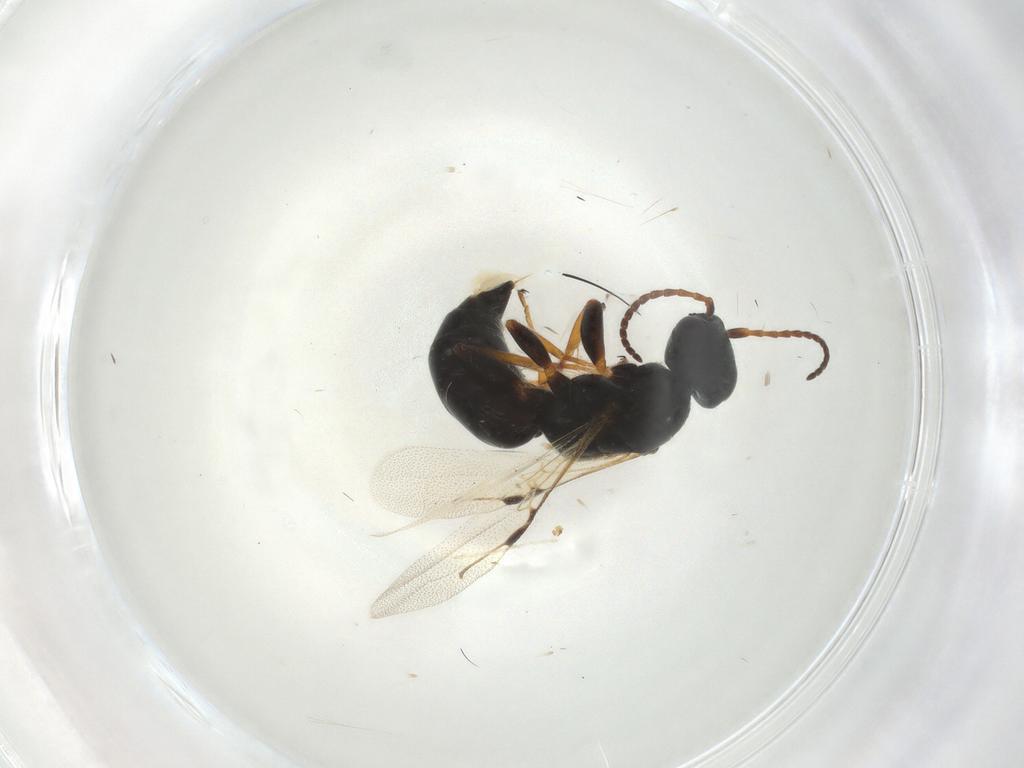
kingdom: Animalia
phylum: Arthropoda
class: Insecta
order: Hymenoptera
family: Bethylidae
